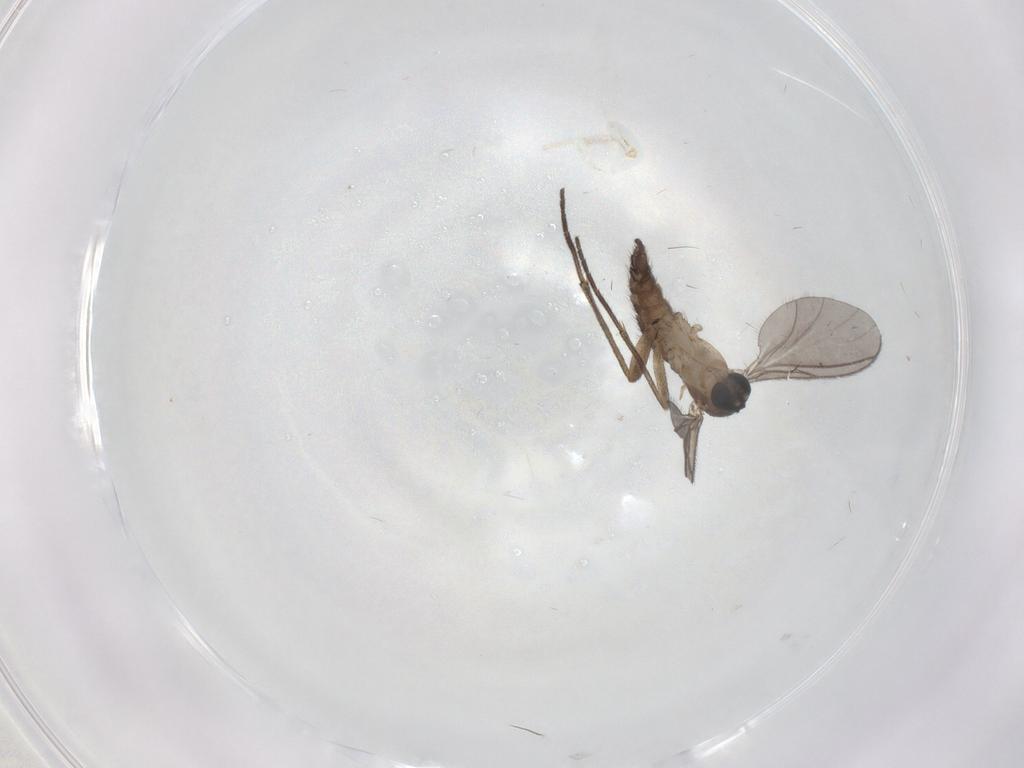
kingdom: Animalia
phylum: Arthropoda
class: Insecta
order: Diptera
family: Sciaridae
